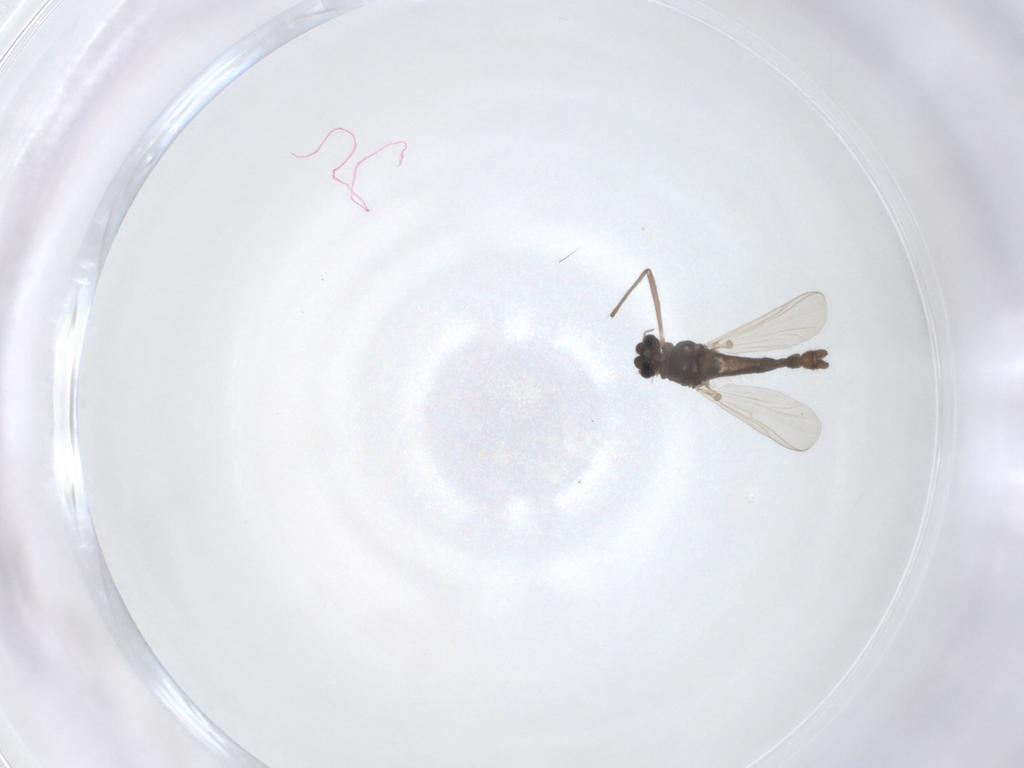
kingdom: Animalia
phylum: Arthropoda
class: Insecta
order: Diptera
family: Chironomidae
